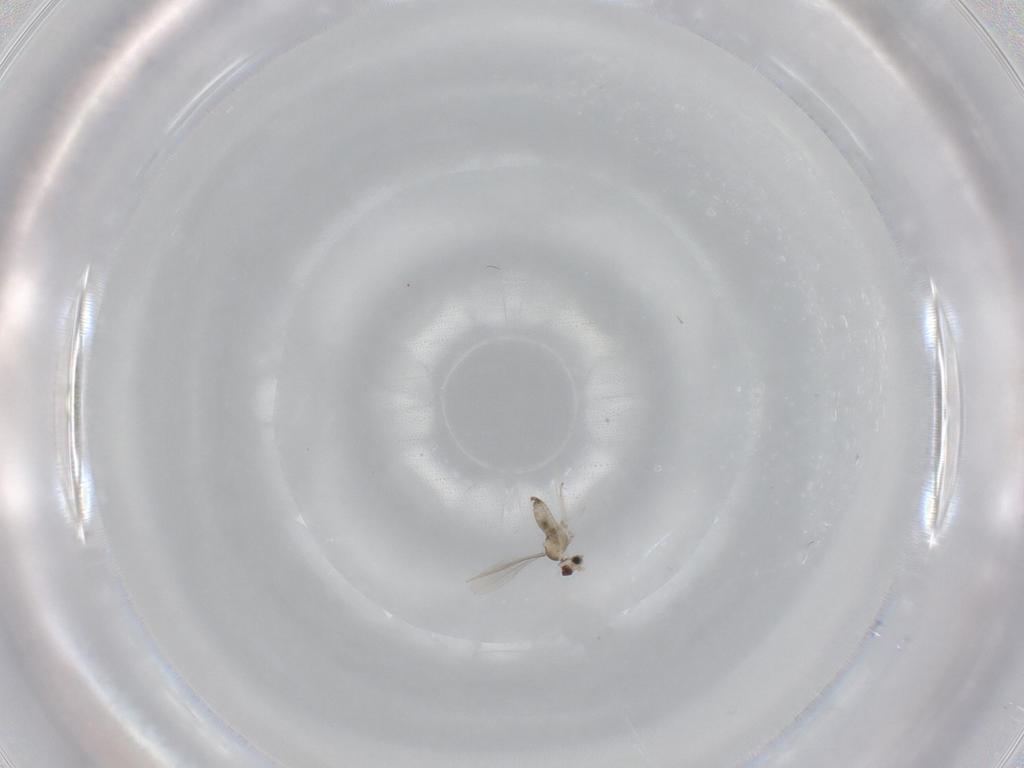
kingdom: Animalia
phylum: Arthropoda
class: Insecta
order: Diptera
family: Cecidomyiidae
